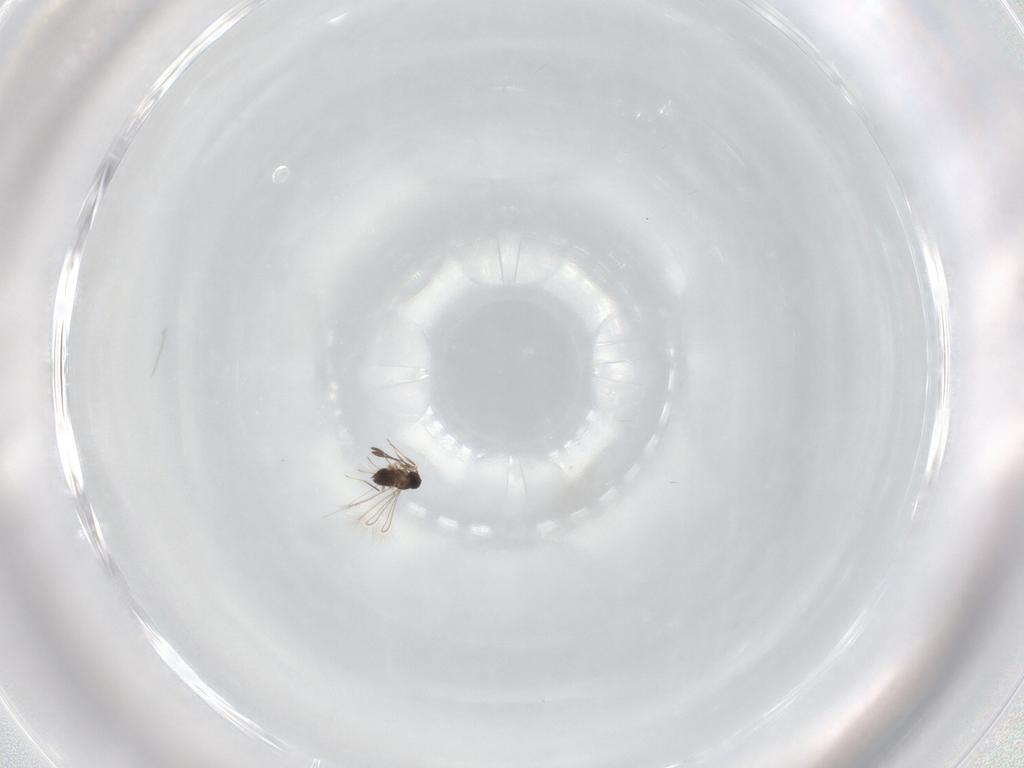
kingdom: Animalia
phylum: Arthropoda
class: Insecta
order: Hymenoptera
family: Mymaridae
